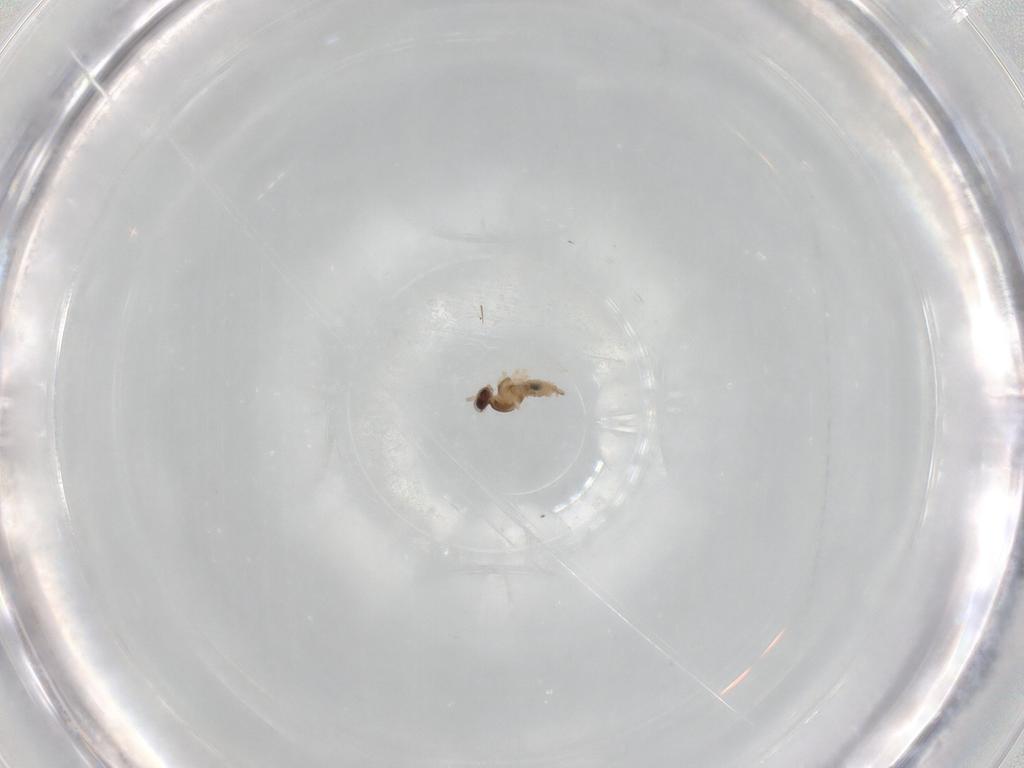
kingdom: Animalia
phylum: Arthropoda
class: Insecta
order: Diptera
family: Cecidomyiidae
